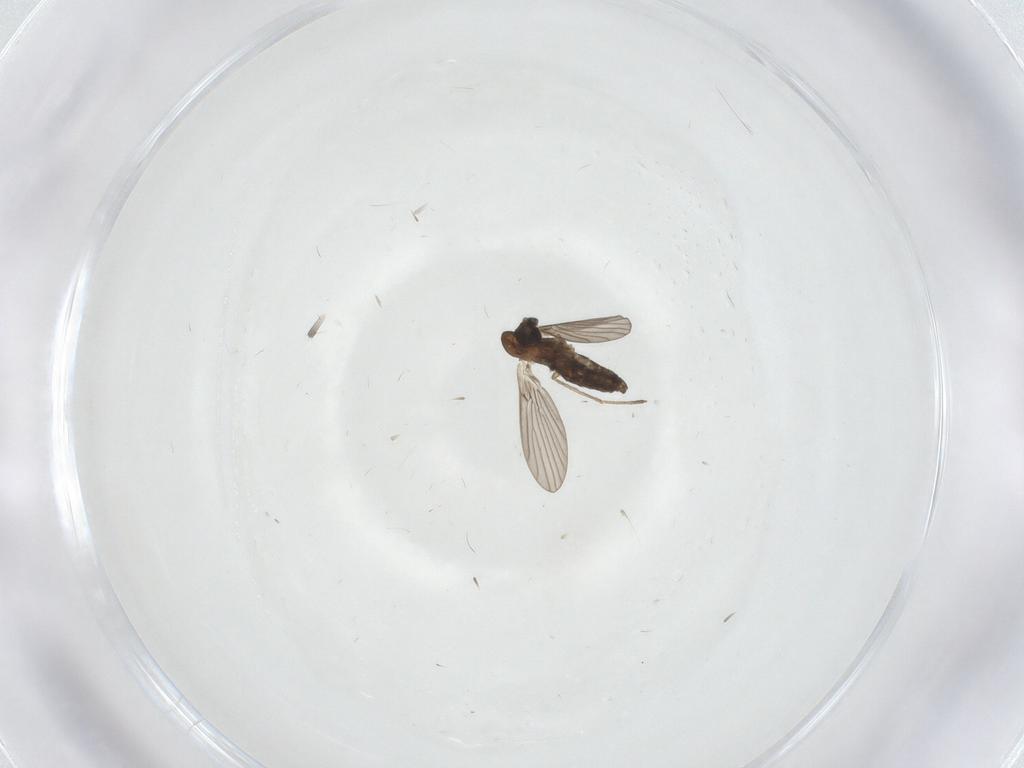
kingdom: Animalia
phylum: Arthropoda
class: Insecta
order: Diptera
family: Psychodidae
